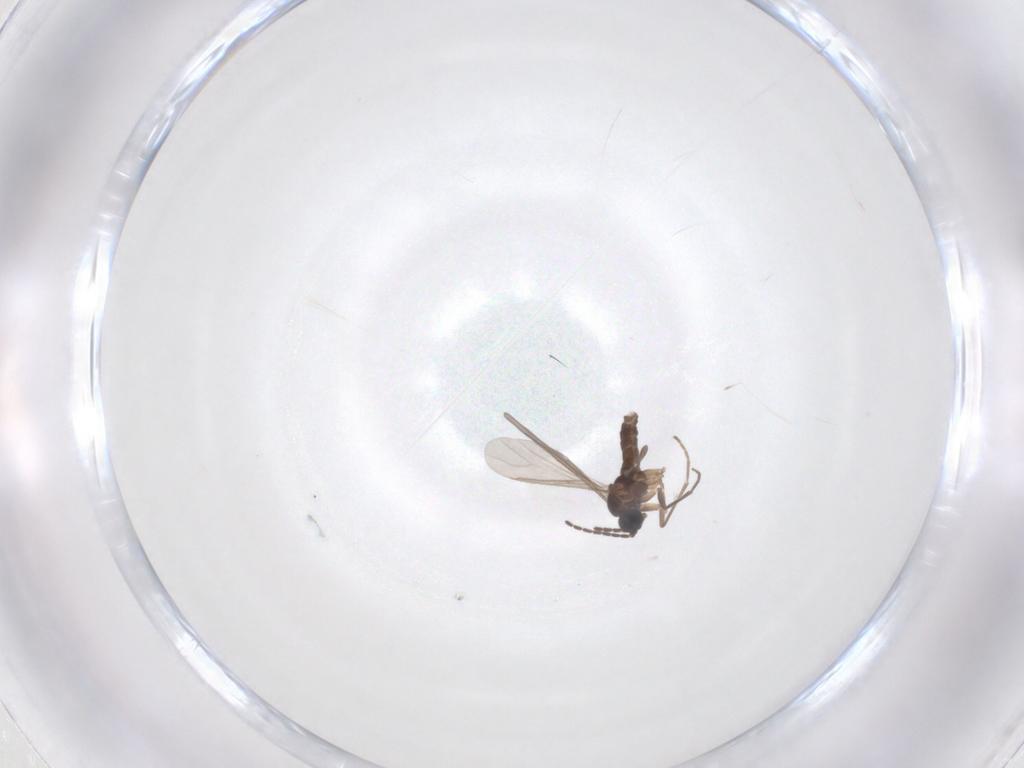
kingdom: Animalia
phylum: Arthropoda
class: Insecta
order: Diptera
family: Sciaridae
